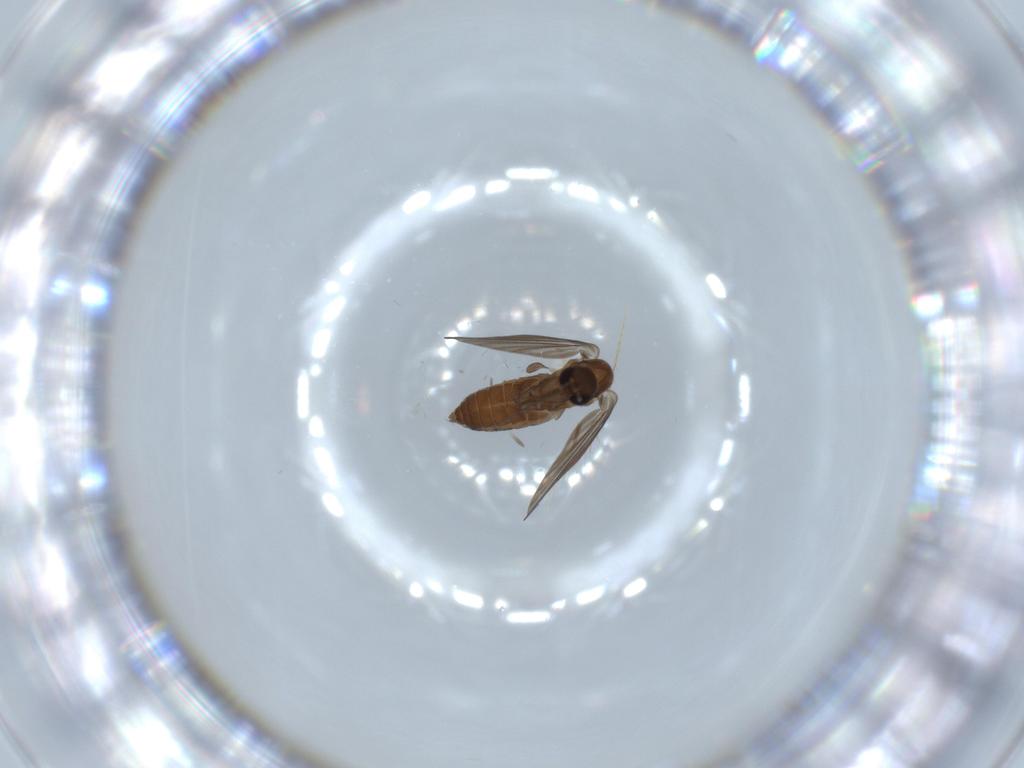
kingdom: Animalia
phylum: Arthropoda
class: Insecta
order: Diptera
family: Psychodidae
